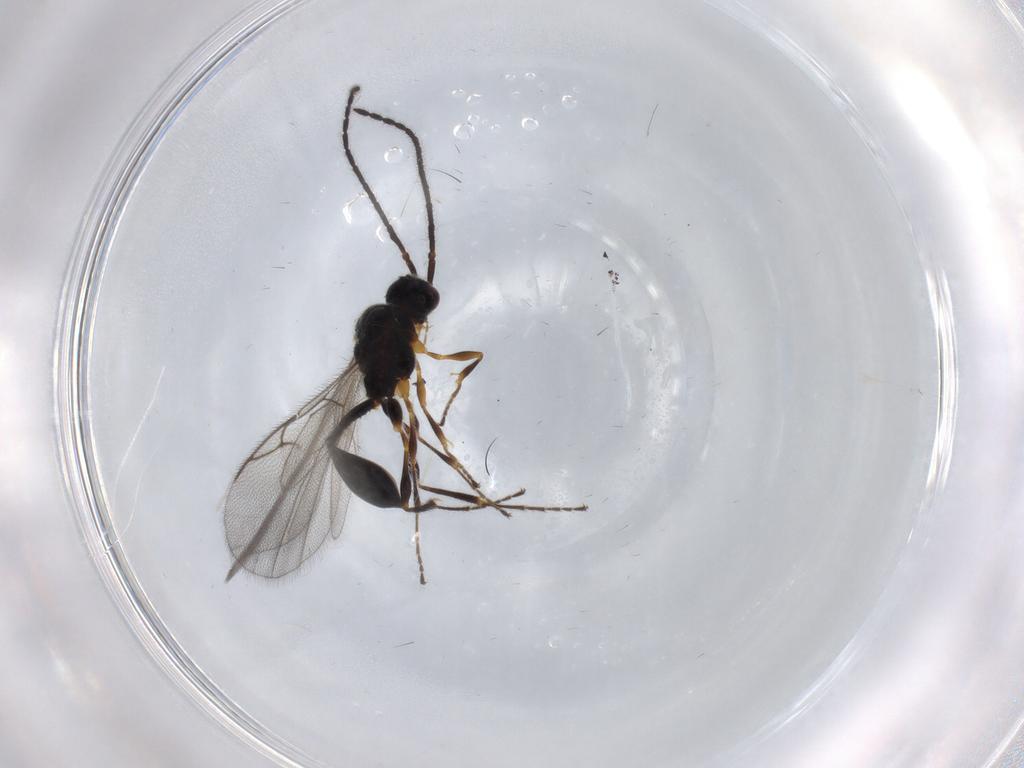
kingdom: Animalia
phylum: Arthropoda
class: Insecta
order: Hymenoptera
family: Diapriidae
